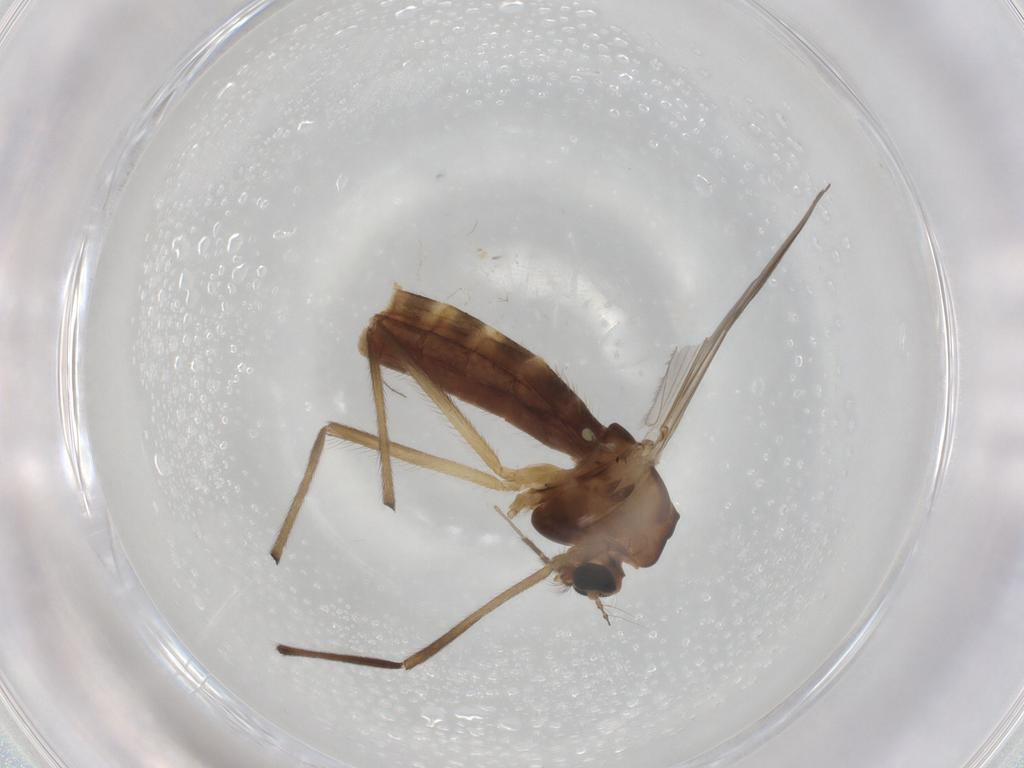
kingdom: Animalia
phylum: Arthropoda
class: Insecta
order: Diptera
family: Chironomidae
